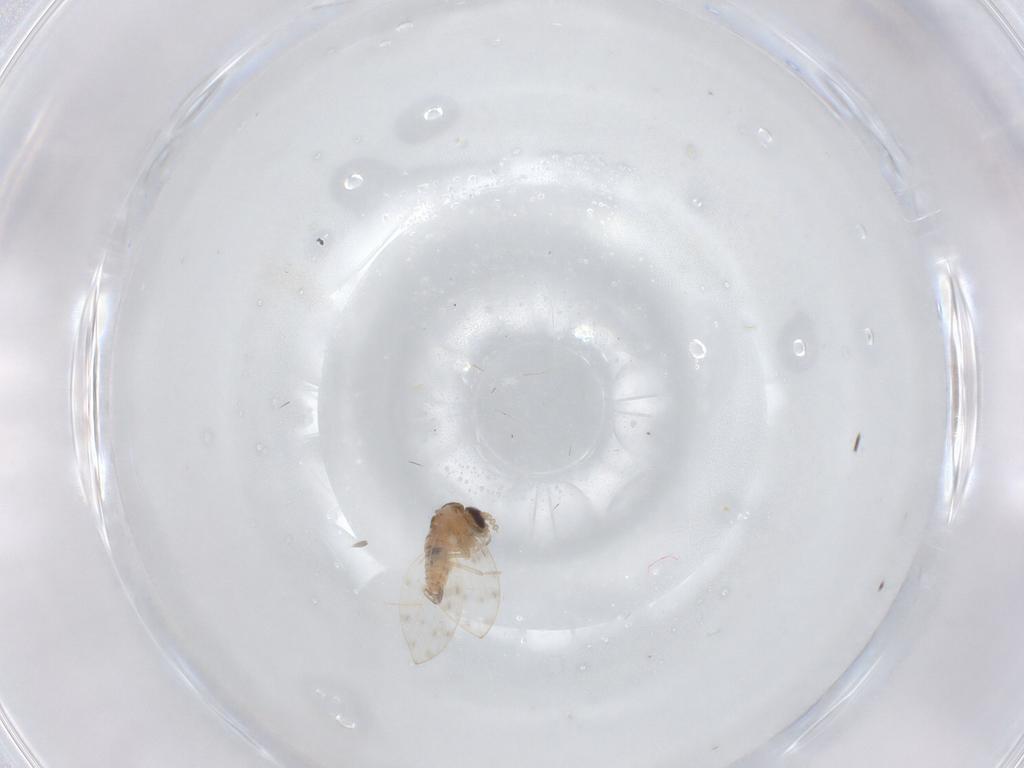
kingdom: Animalia
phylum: Arthropoda
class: Insecta
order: Diptera
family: Psychodidae
